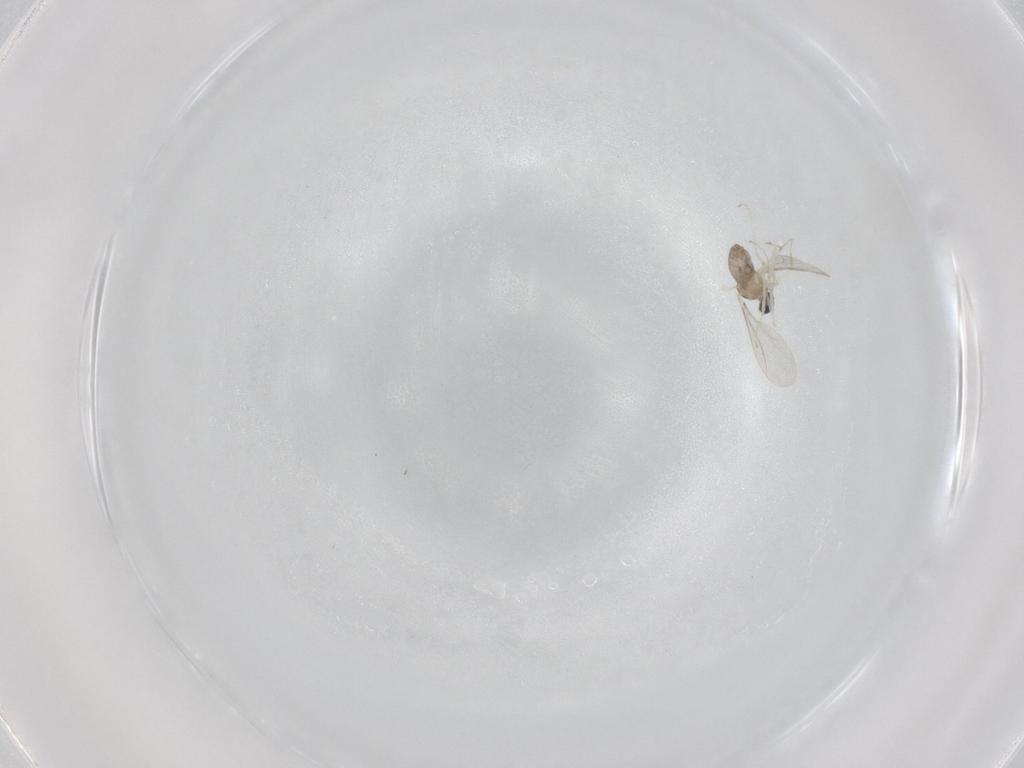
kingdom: Animalia
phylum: Arthropoda
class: Insecta
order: Diptera
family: Cecidomyiidae
